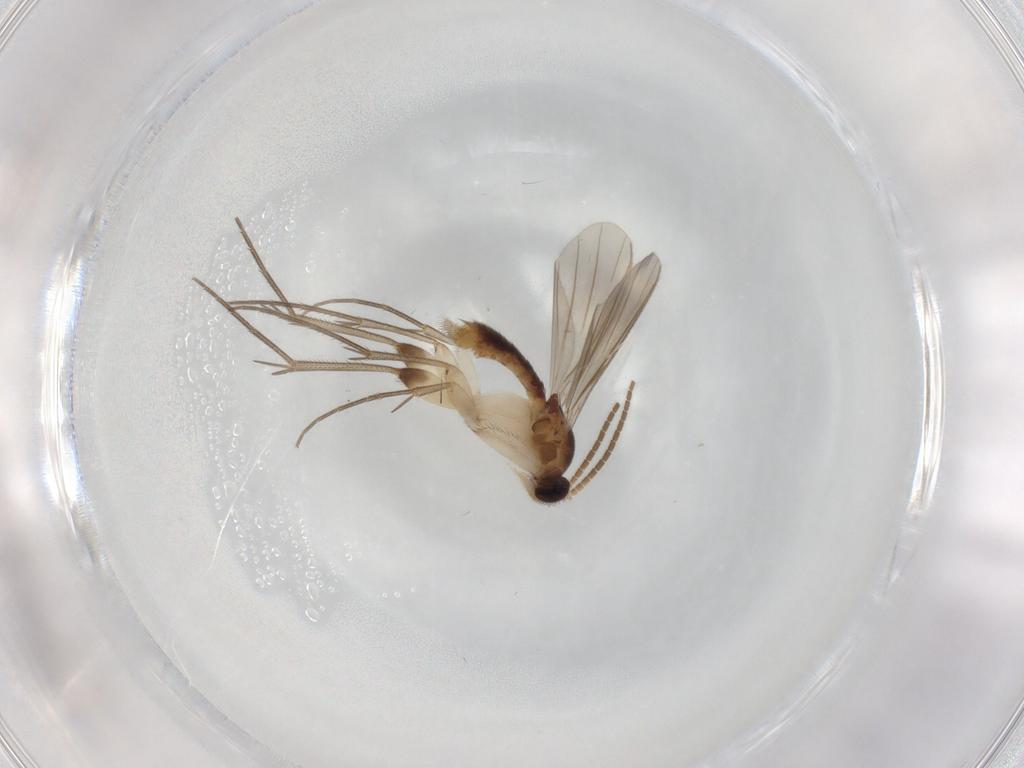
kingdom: Animalia
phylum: Arthropoda
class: Insecta
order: Diptera
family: Mycetophilidae
